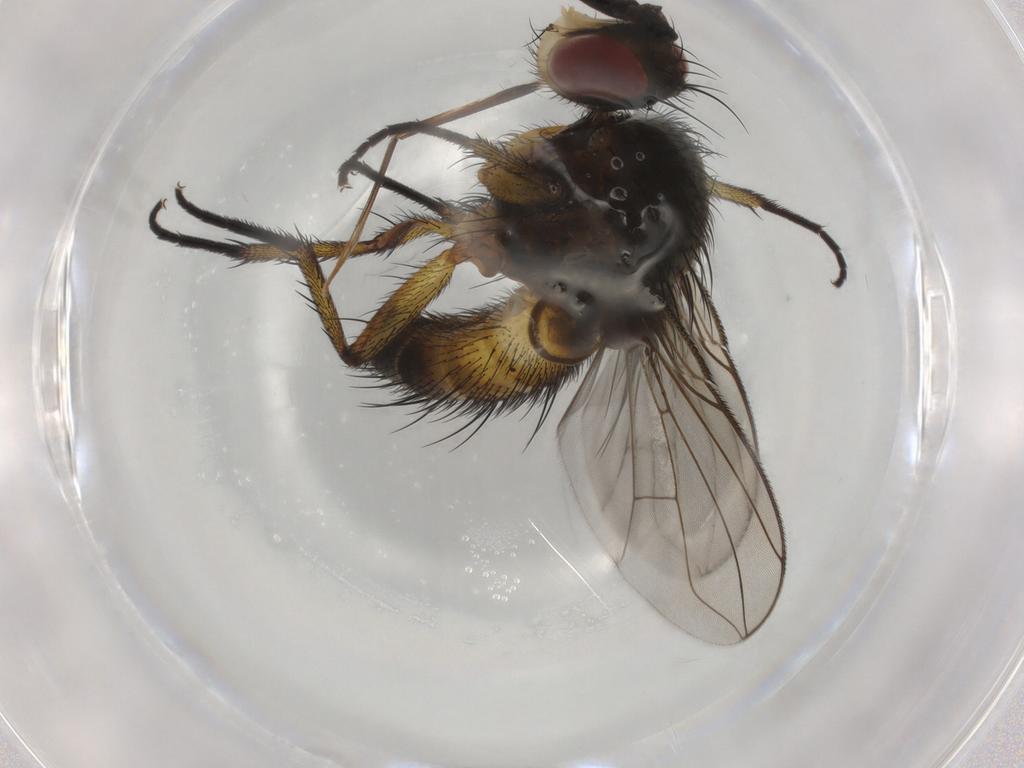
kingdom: Animalia
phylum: Arthropoda
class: Insecta
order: Diptera
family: Tachinidae
